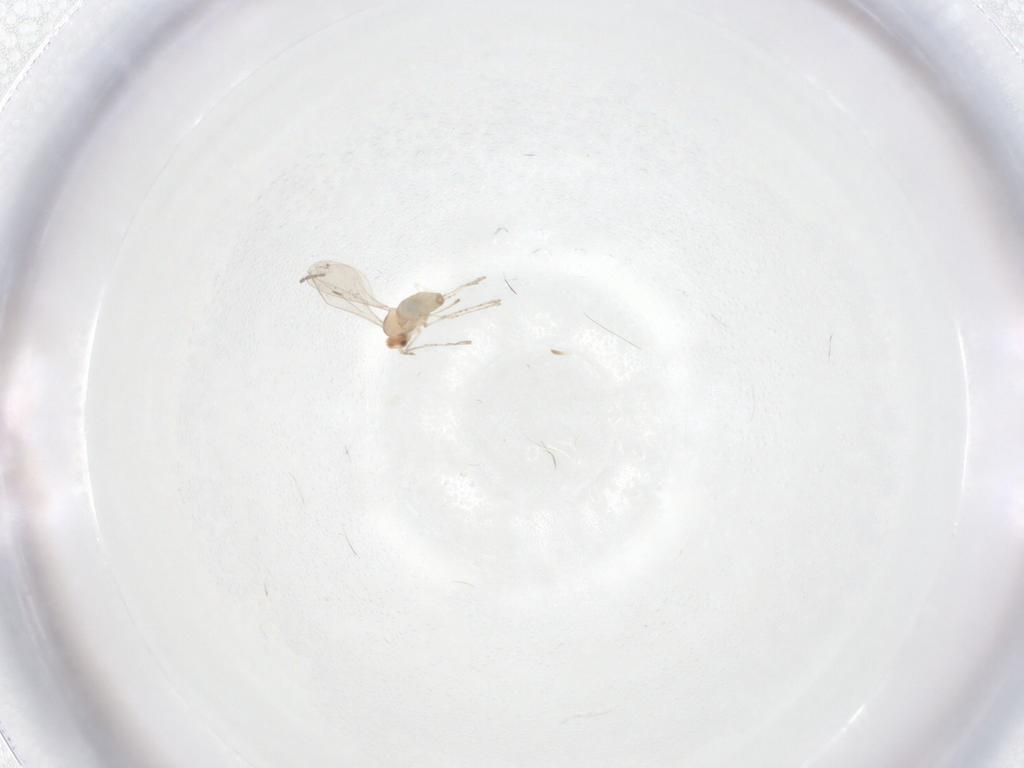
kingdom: Animalia
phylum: Arthropoda
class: Insecta
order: Diptera
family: Cecidomyiidae
